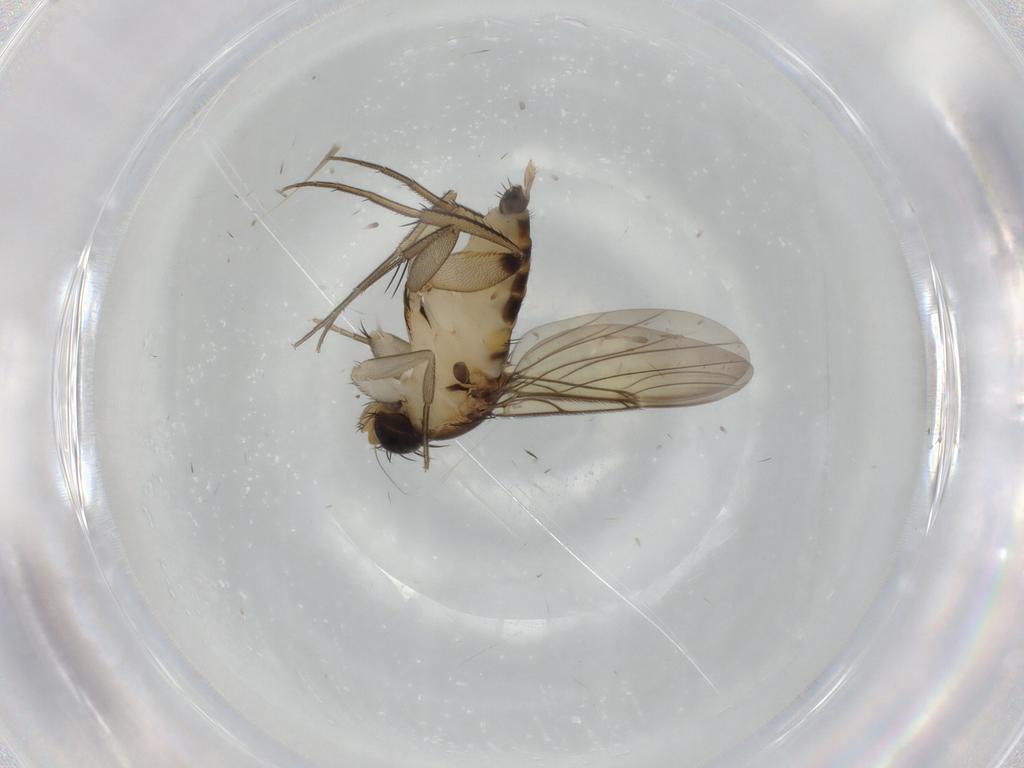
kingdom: Animalia
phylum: Arthropoda
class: Insecta
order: Diptera
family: Phoridae
